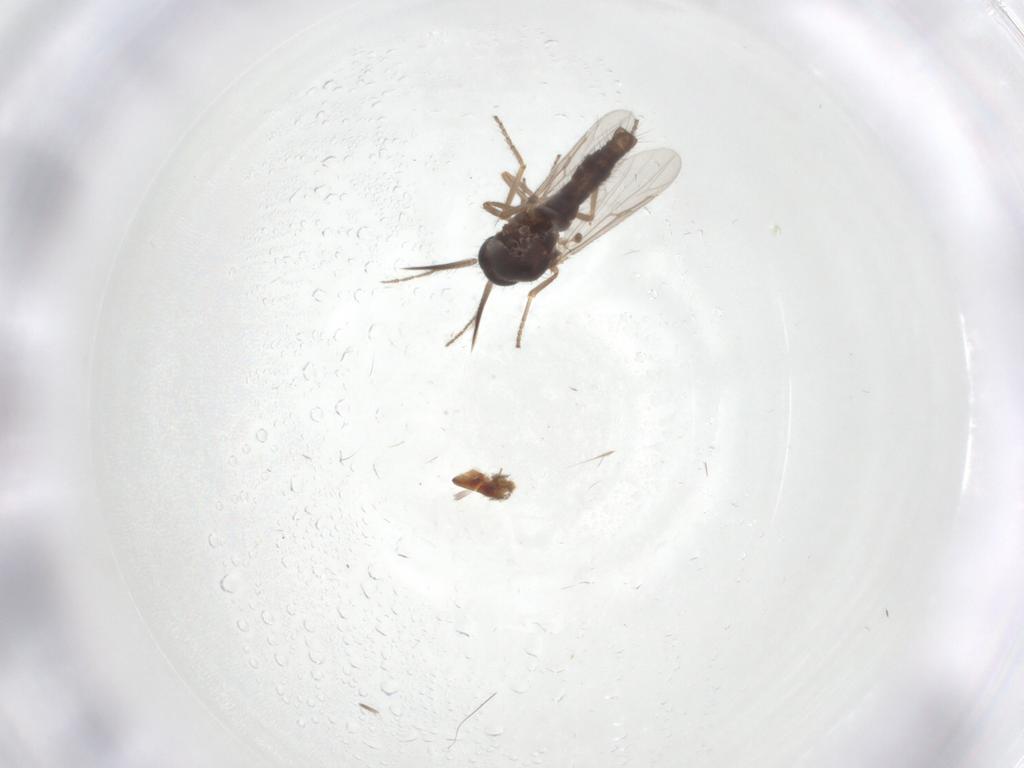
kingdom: Animalia
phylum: Arthropoda
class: Insecta
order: Diptera
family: Ceratopogonidae
